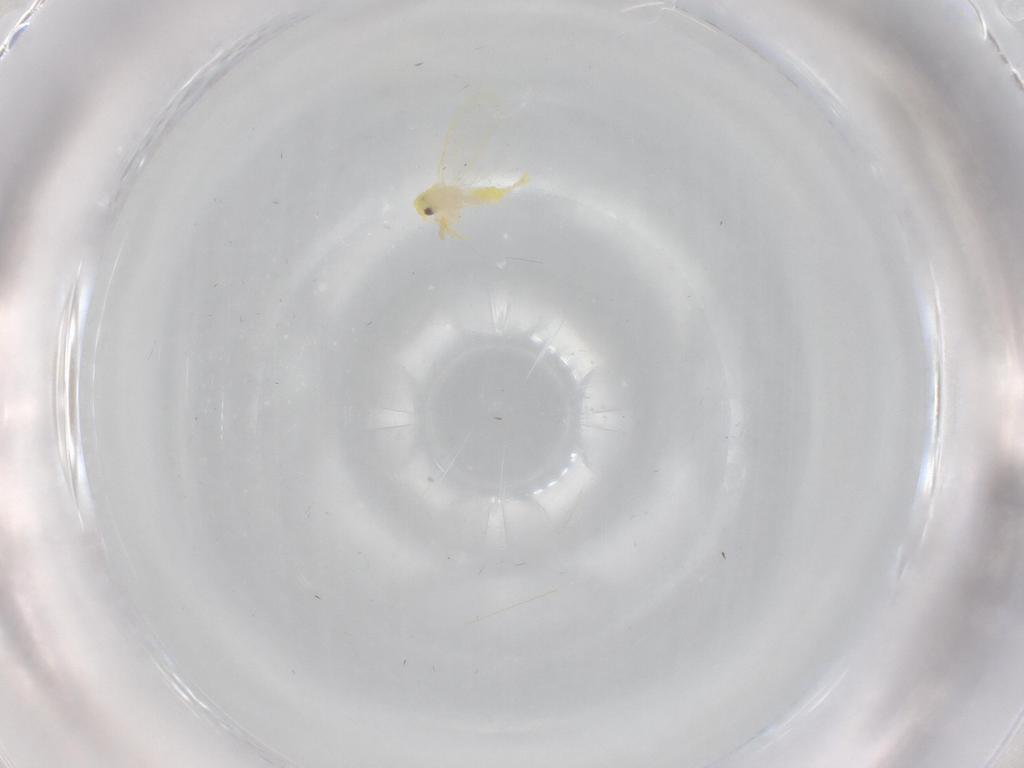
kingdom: Animalia
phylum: Arthropoda
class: Insecta
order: Hemiptera
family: Aleyrodidae
